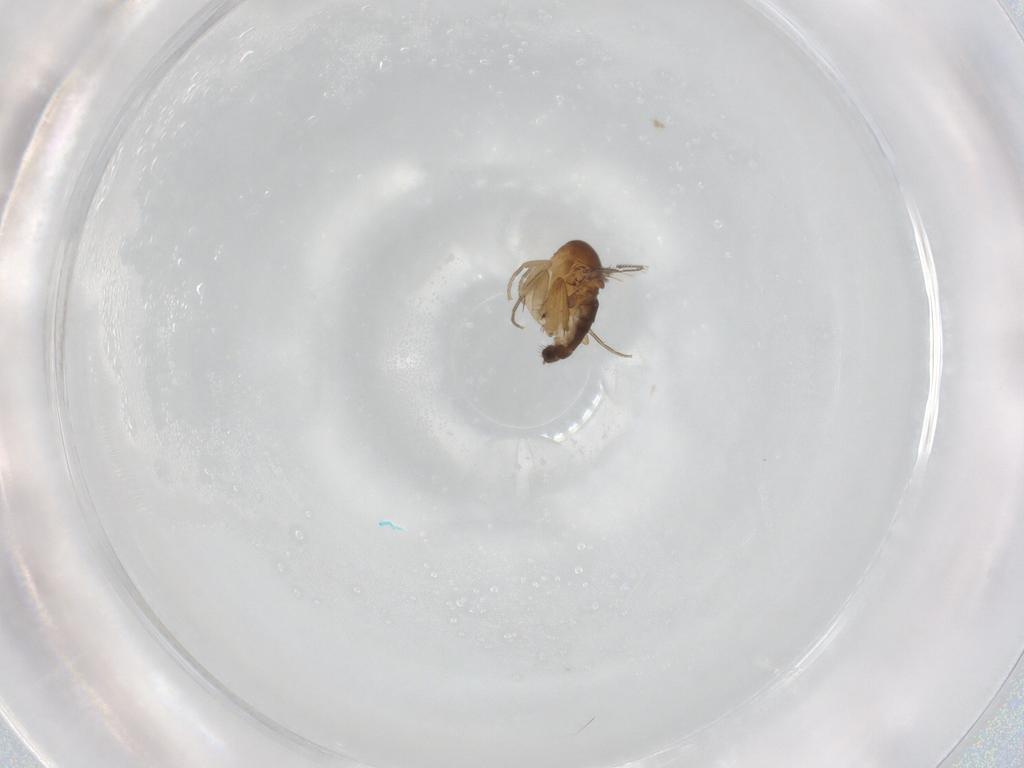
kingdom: Animalia
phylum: Arthropoda
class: Insecta
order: Diptera
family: Phoridae
